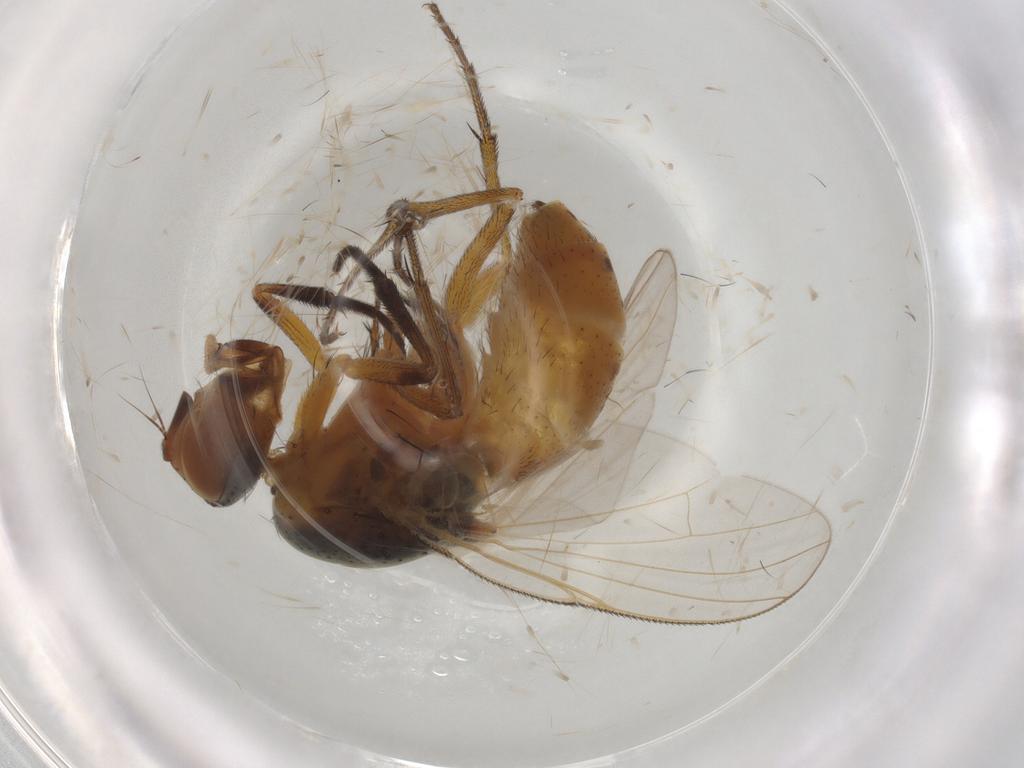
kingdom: Animalia
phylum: Arthropoda
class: Insecta
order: Diptera
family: Muscidae
